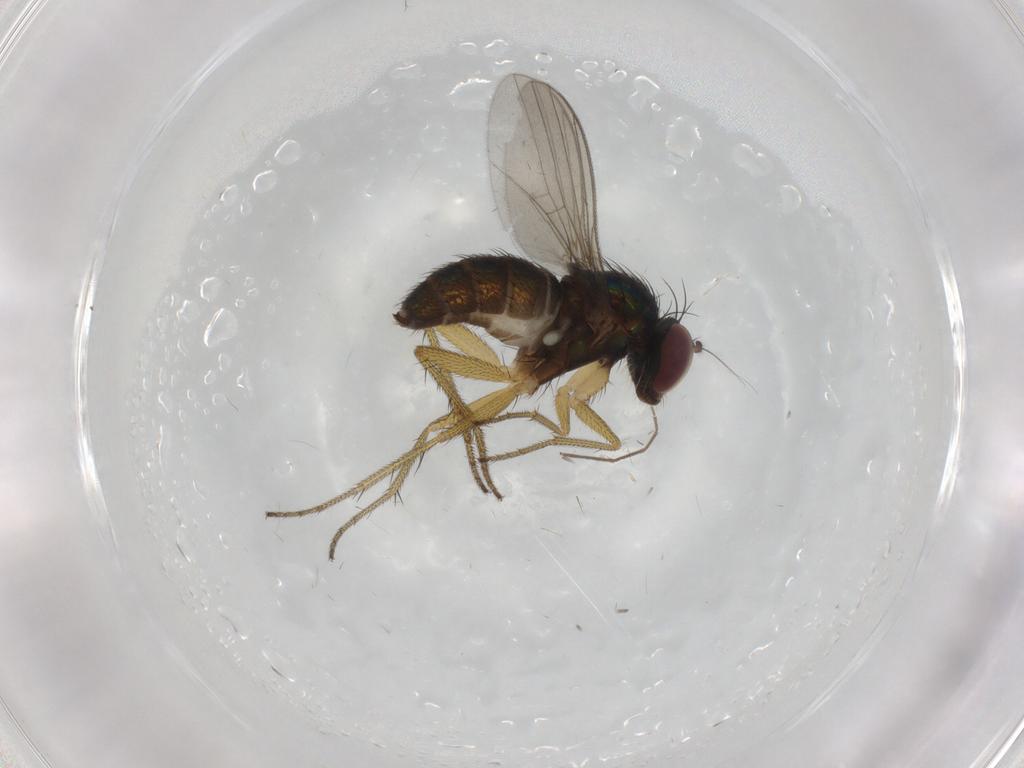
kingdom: Animalia
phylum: Arthropoda
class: Insecta
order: Diptera
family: Chironomidae
